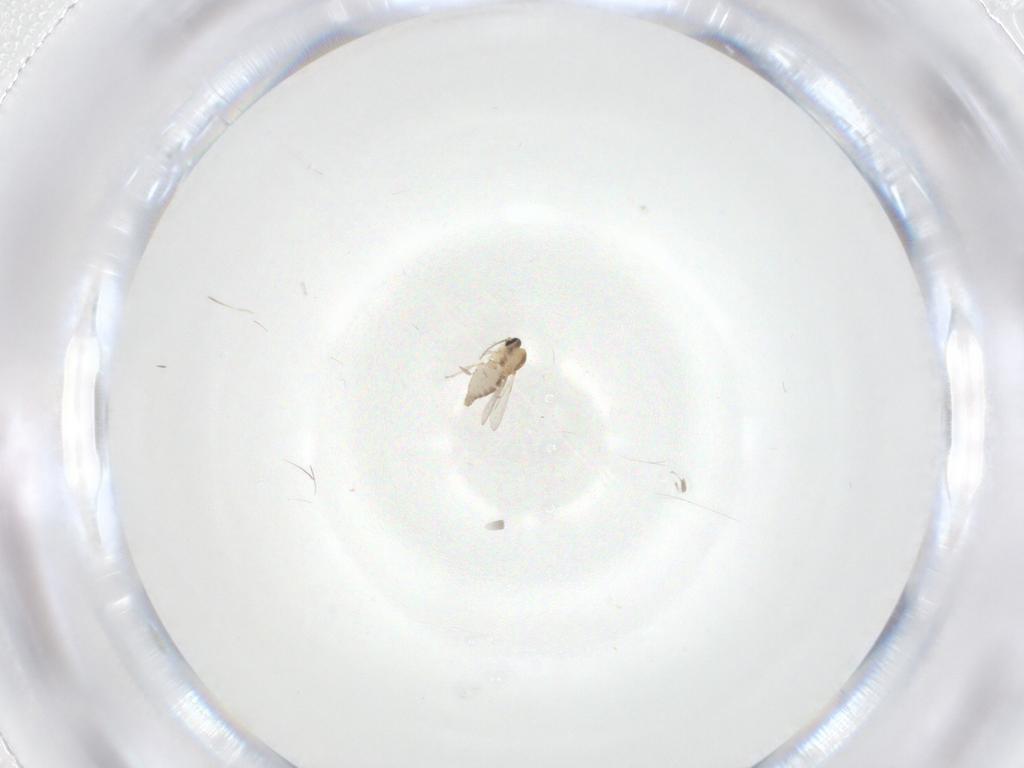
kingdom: Animalia
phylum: Arthropoda
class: Insecta
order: Diptera
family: Ceratopogonidae
